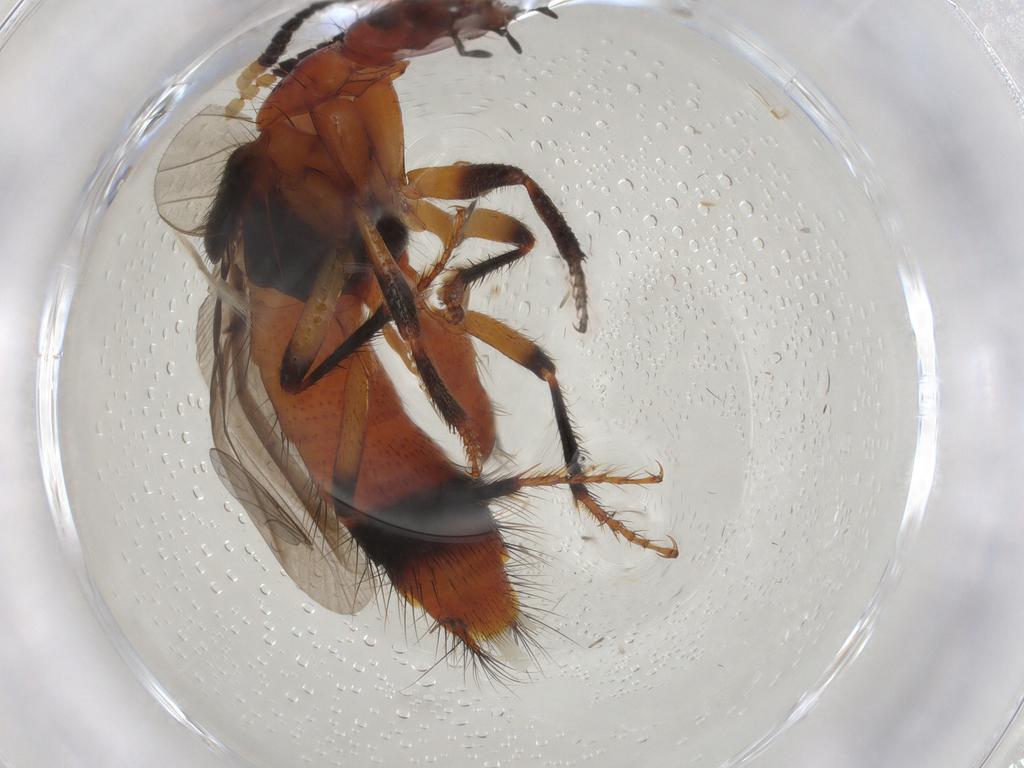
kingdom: Animalia
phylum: Arthropoda
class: Insecta
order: Coleoptera
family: Staphylinidae
